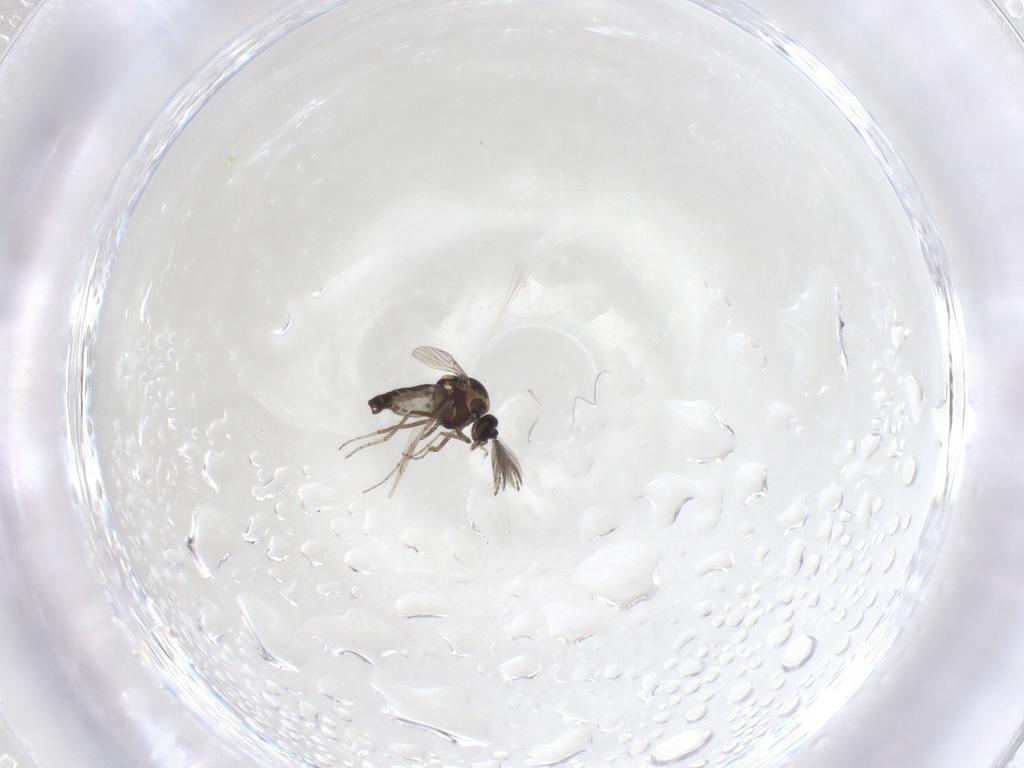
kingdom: Animalia
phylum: Arthropoda
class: Insecta
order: Diptera
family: Ceratopogonidae
